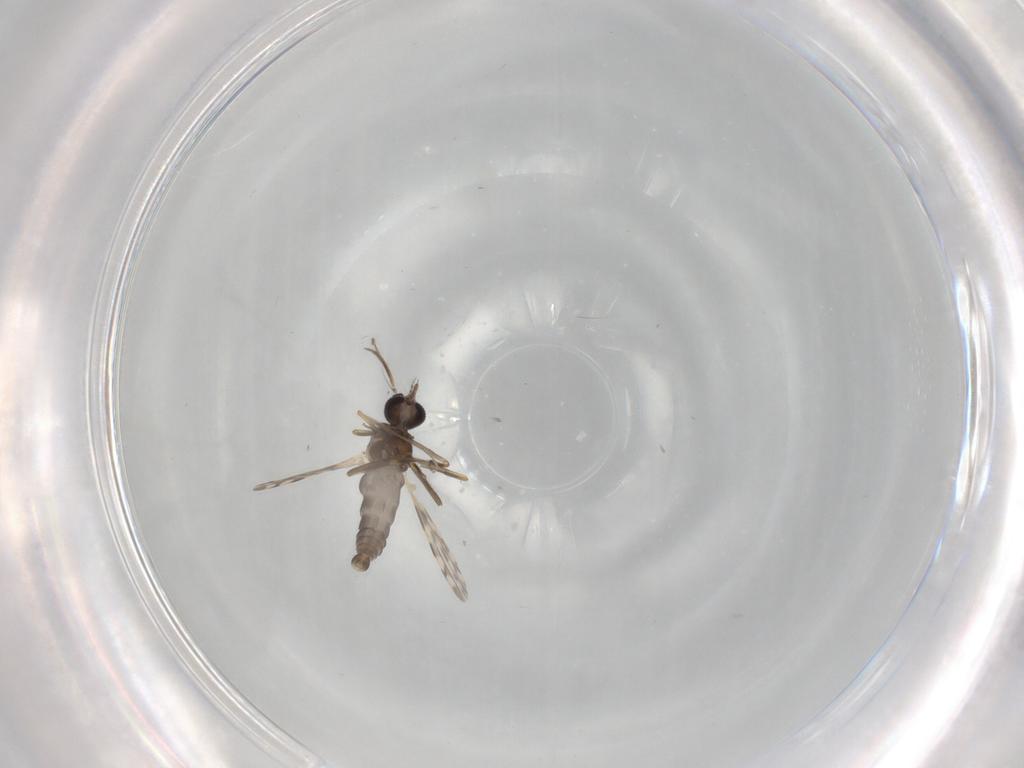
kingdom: Animalia
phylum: Arthropoda
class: Insecta
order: Diptera
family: Ceratopogonidae
